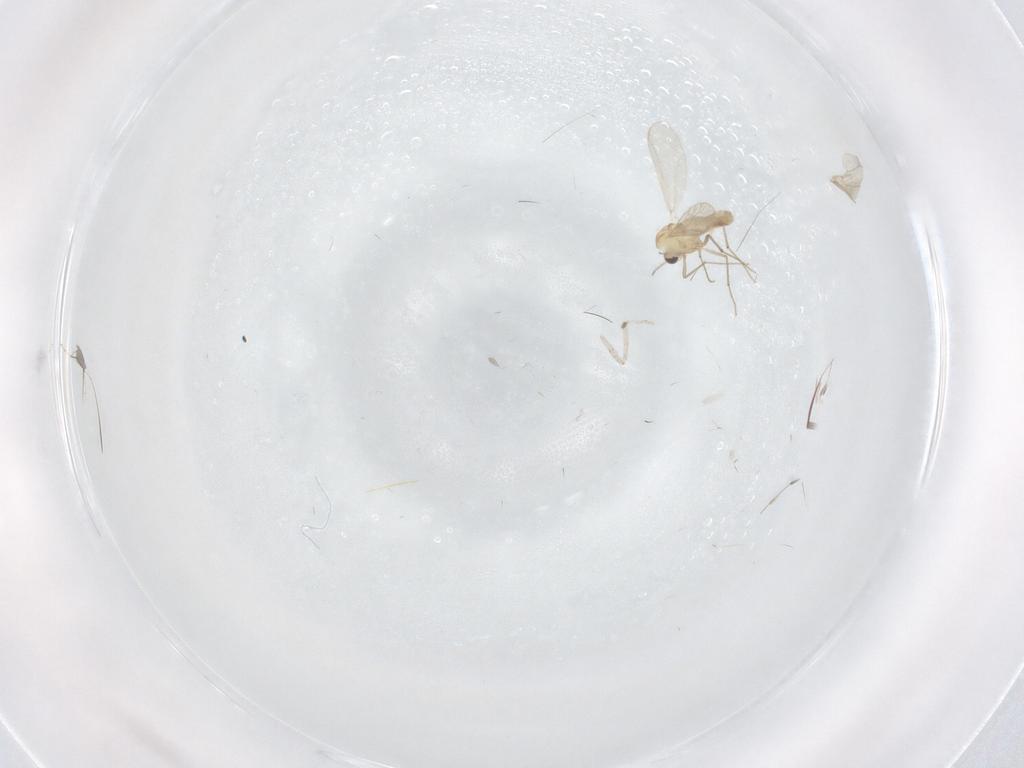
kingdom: Animalia
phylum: Arthropoda
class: Insecta
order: Diptera
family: Cecidomyiidae
